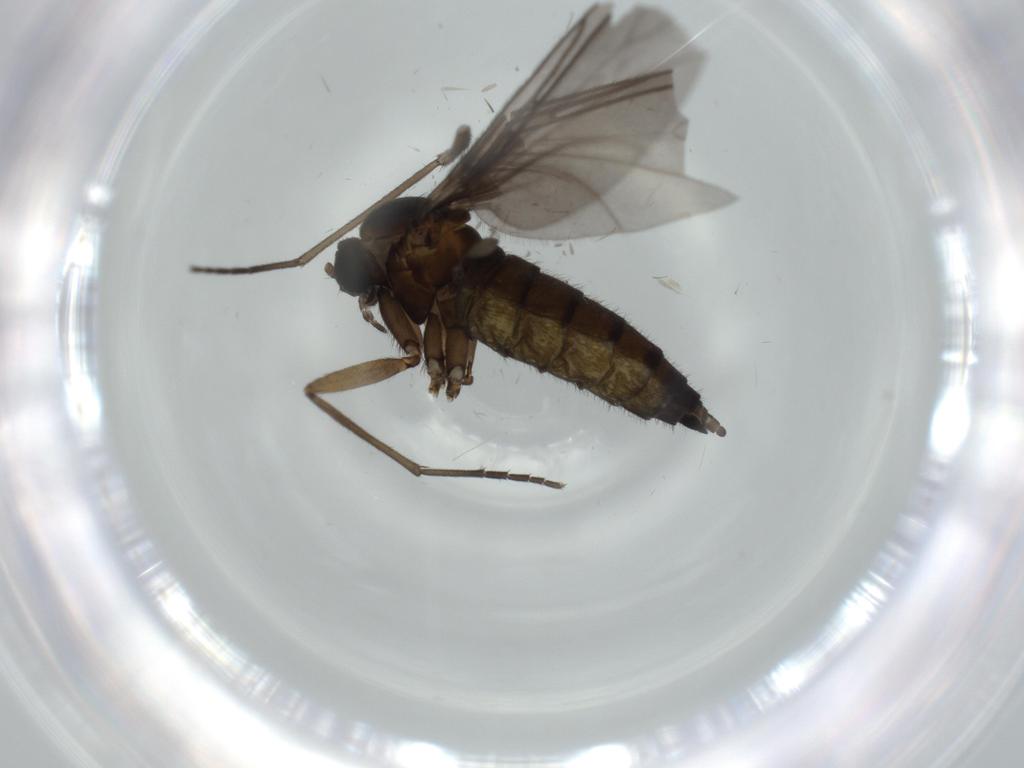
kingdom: Animalia
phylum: Arthropoda
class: Insecta
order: Diptera
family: Sciaridae
